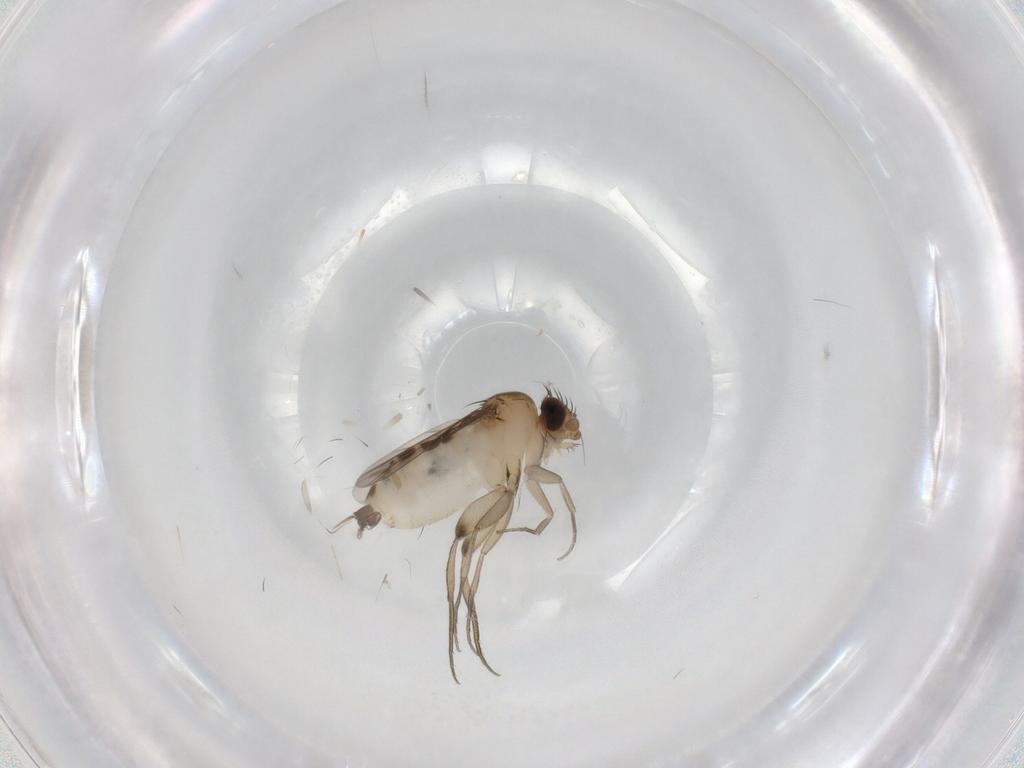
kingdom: Animalia
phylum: Arthropoda
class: Insecta
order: Diptera
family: Phoridae
